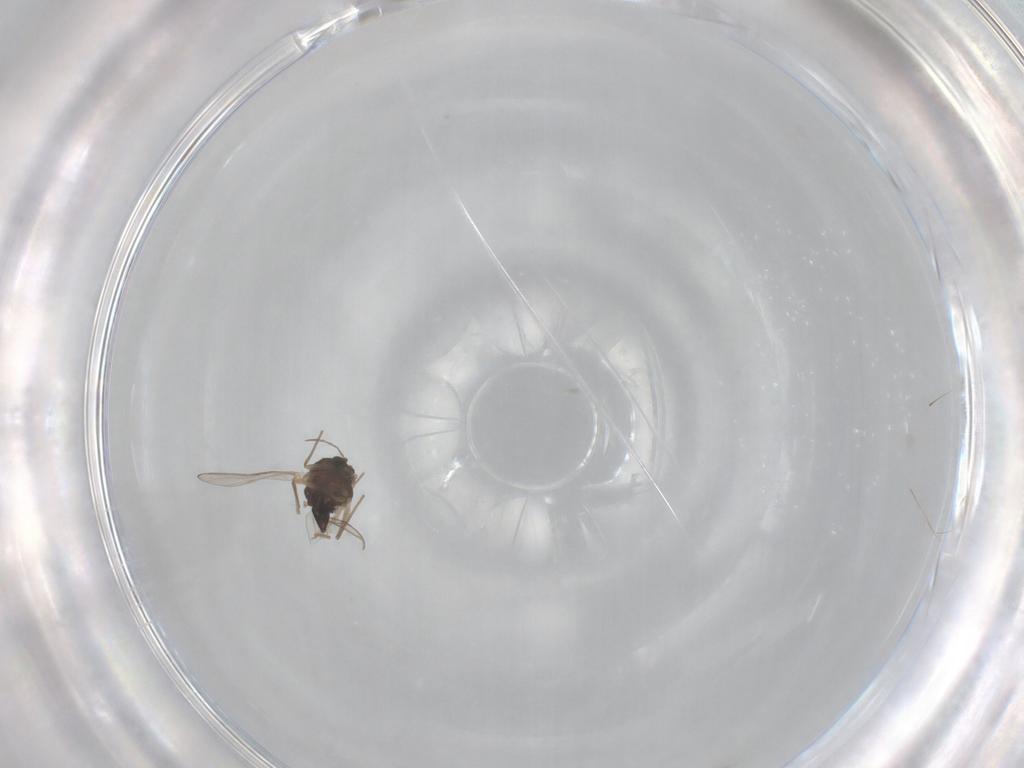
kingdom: Animalia
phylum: Arthropoda
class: Insecta
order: Diptera
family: Chironomidae
